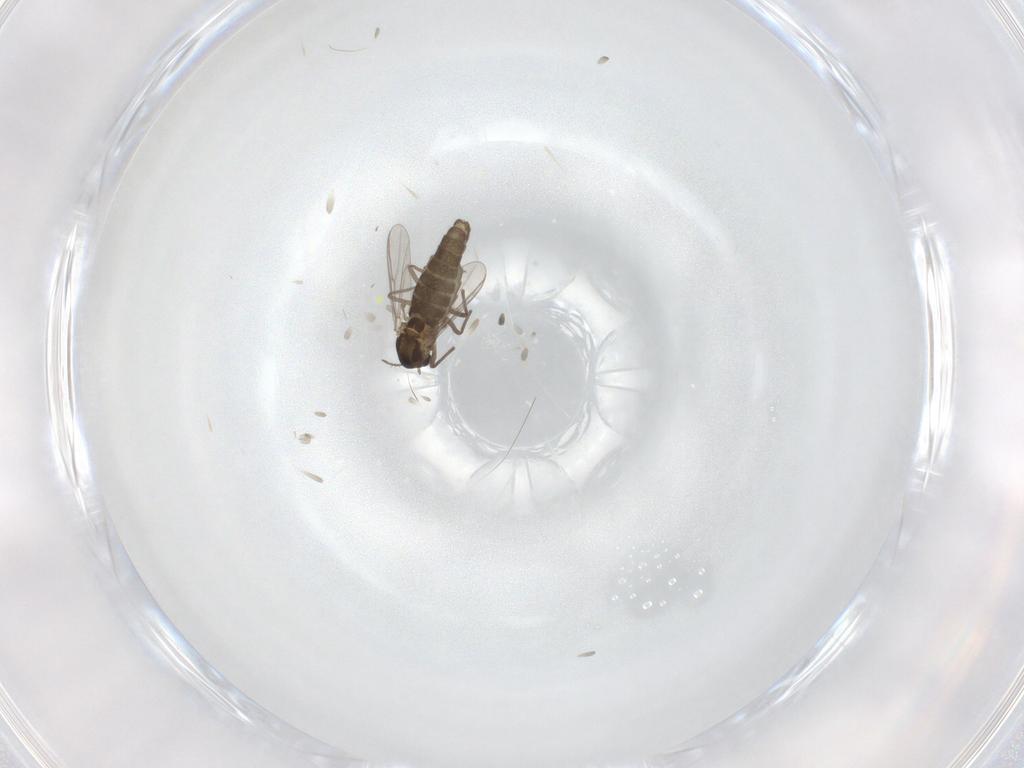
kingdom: Animalia
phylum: Arthropoda
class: Insecta
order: Diptera
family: Chironomidae
